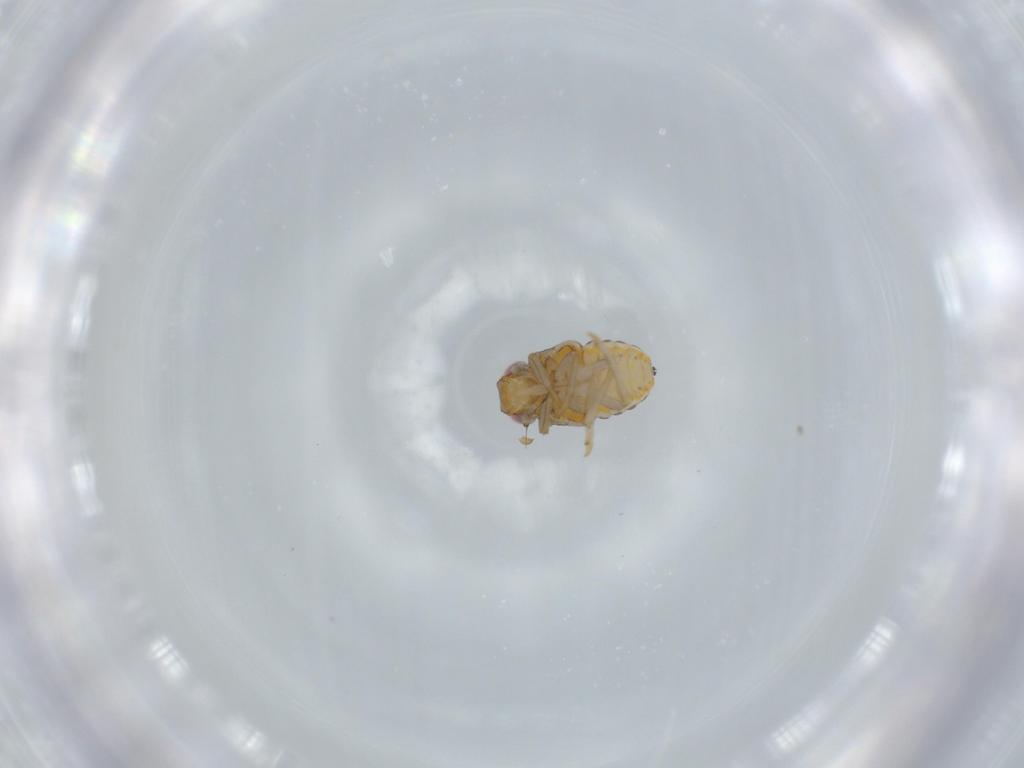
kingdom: Animalia
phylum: Arthropoda
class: Insecta
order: Hemiptera
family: Issidae
